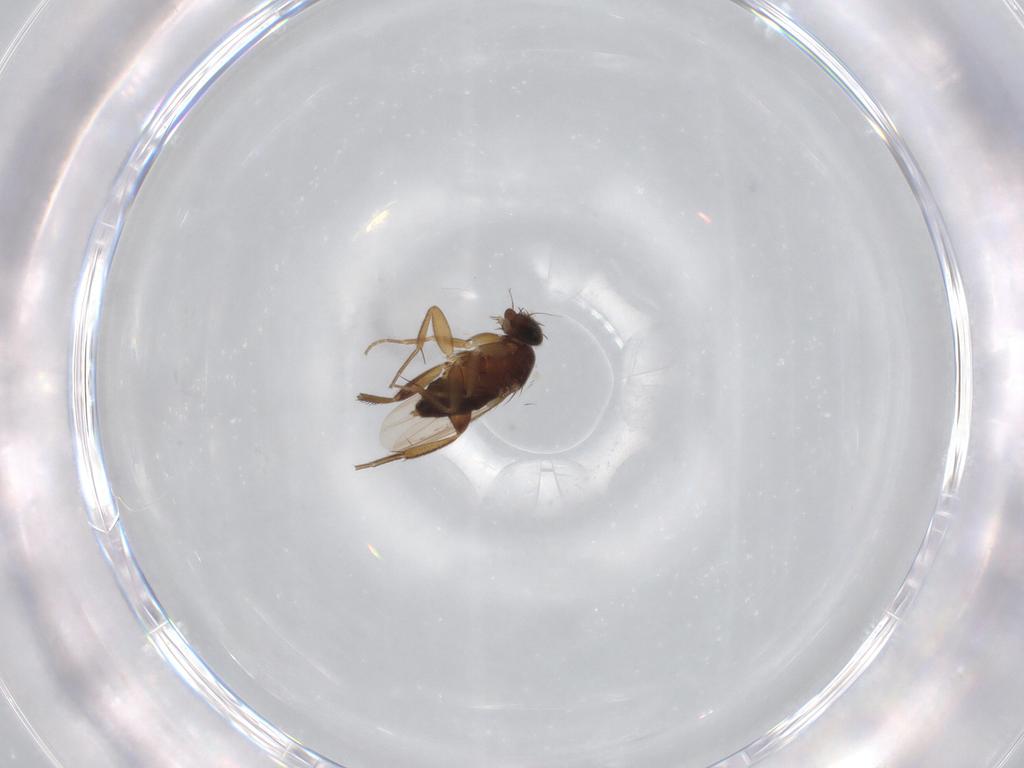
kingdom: Animalia
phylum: Arthropoda
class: Insecta
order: Diptera
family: Phoridae
